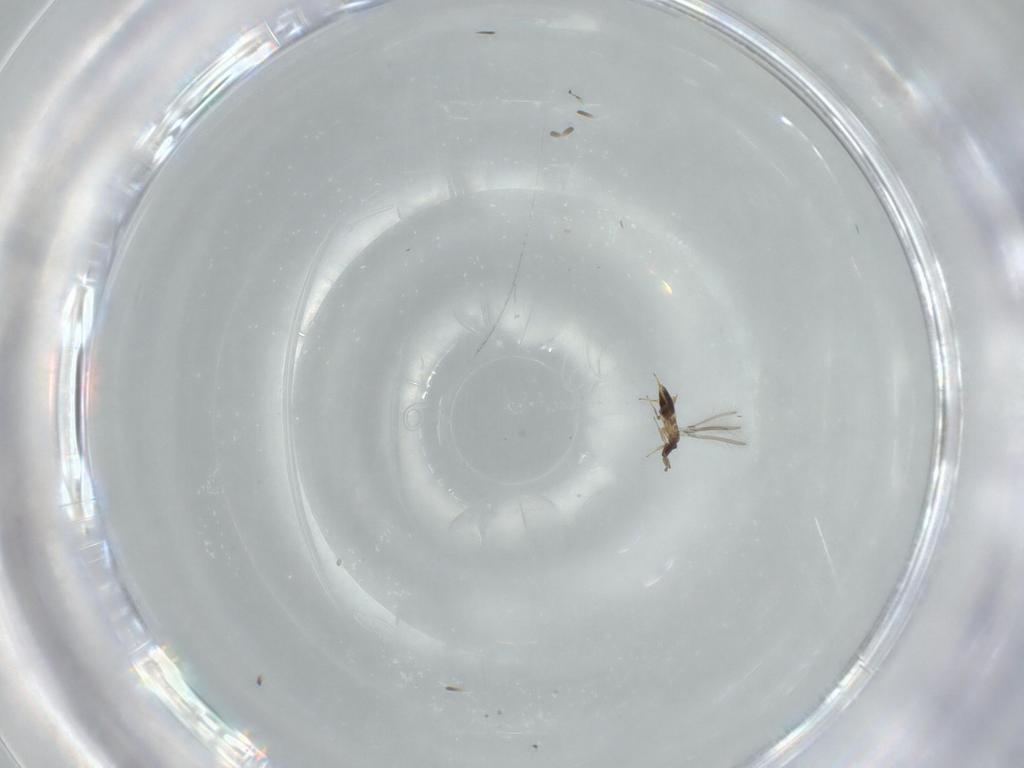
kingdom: Animalia
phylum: Arthropoda
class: Insecta
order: Hymenoptera
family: Mymaridae
